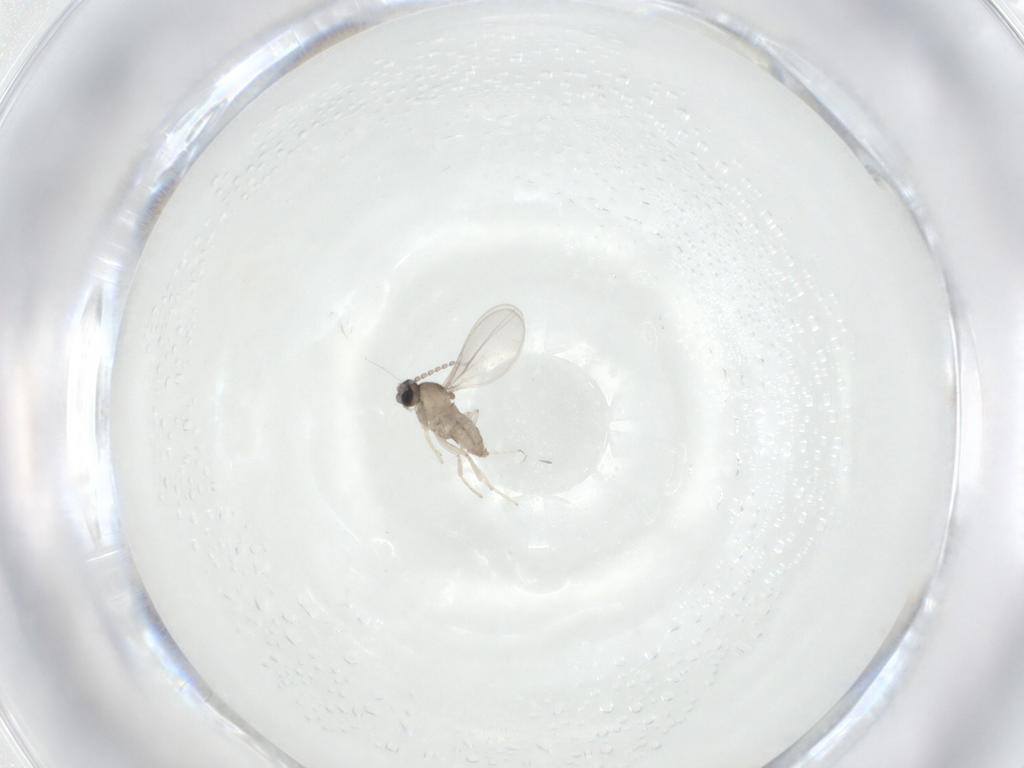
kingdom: Animalia
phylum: Arthropoda
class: Insecta
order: Diptera
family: Cecidomyiidae
